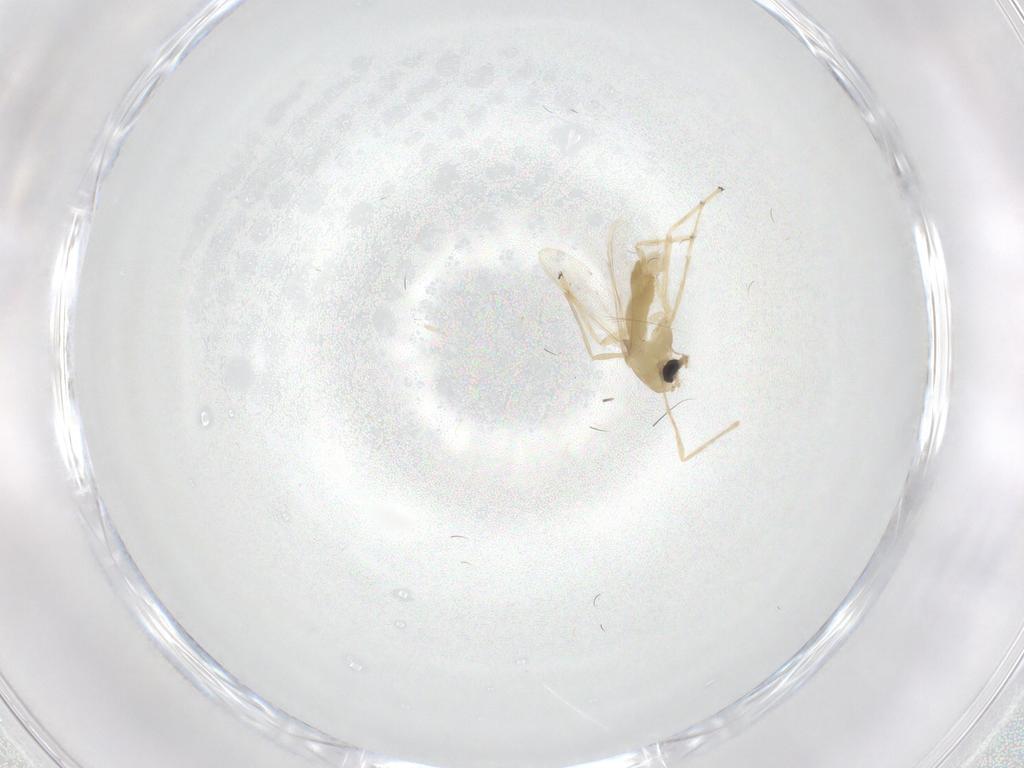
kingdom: Animalia
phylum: Arthropoda
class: Insecta
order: Diptera
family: Chironomidae
